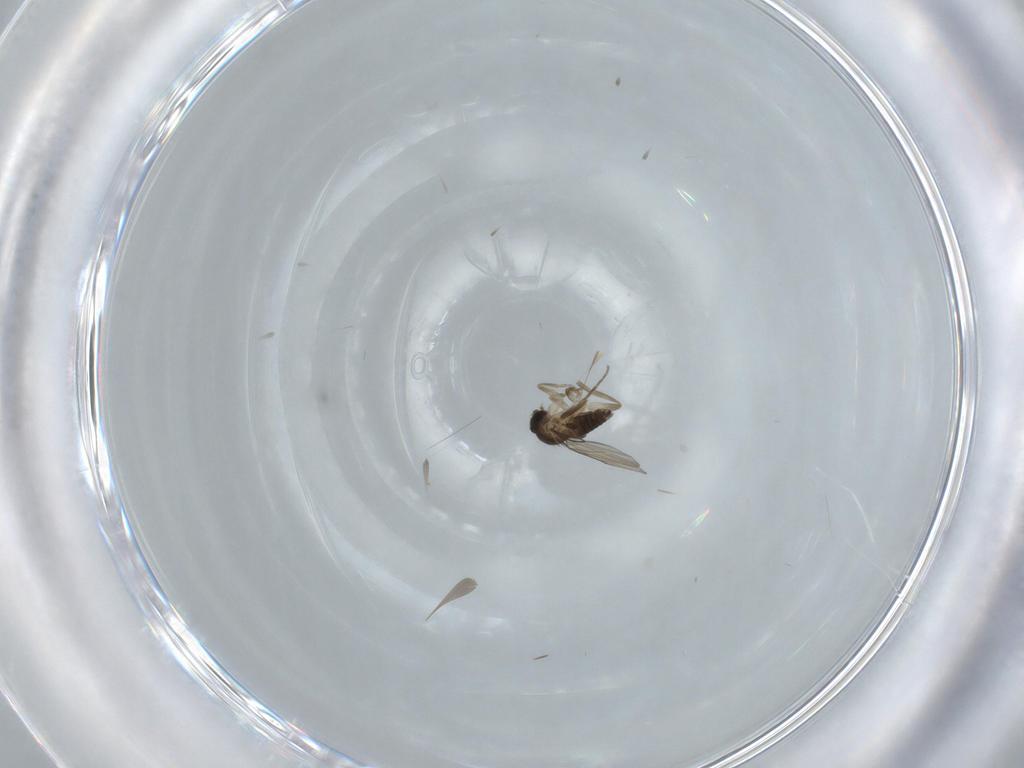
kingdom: Animalia
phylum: Arthropoda
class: Insecta
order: Diptera
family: Phoridae
